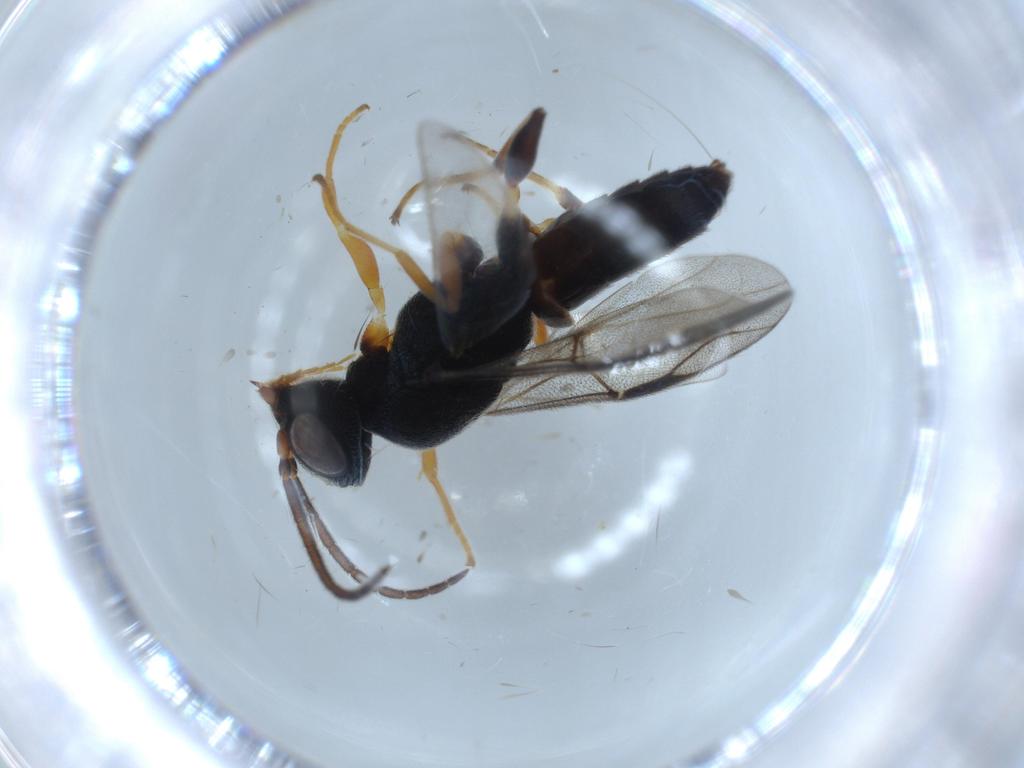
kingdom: Animalia
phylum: Arthropoda
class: Insecta
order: Hymenoptera
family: Dryinidae
